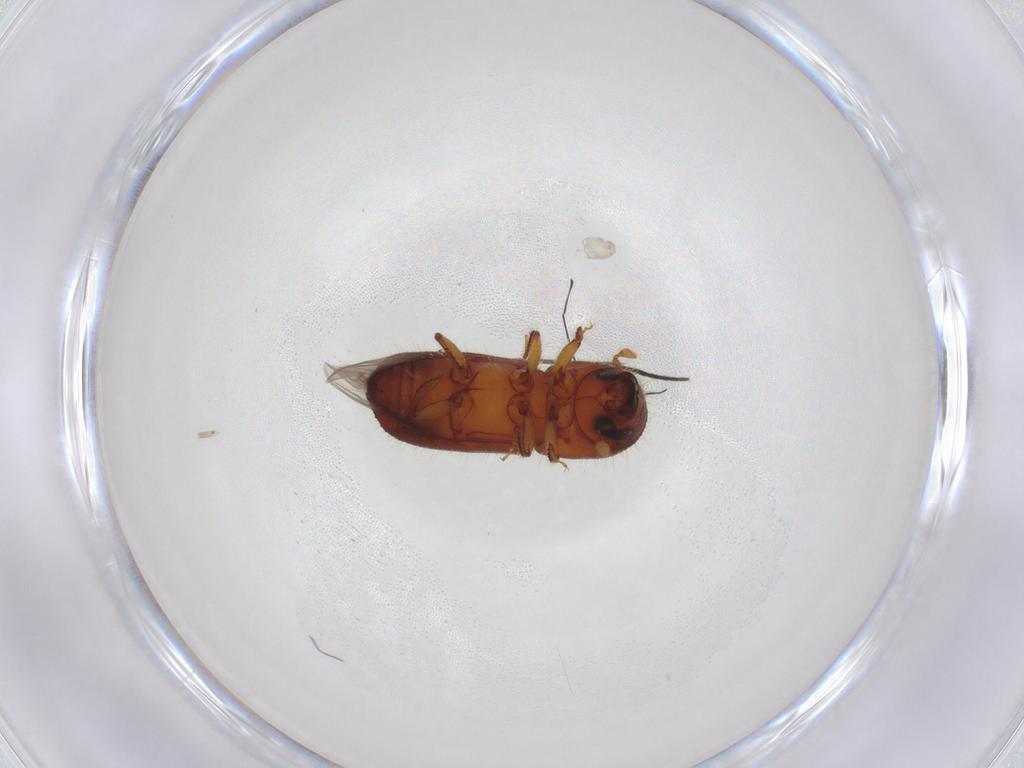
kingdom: Animalia
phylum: Arthropoda
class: Insecta
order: Coleoptera
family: Curculionidae
